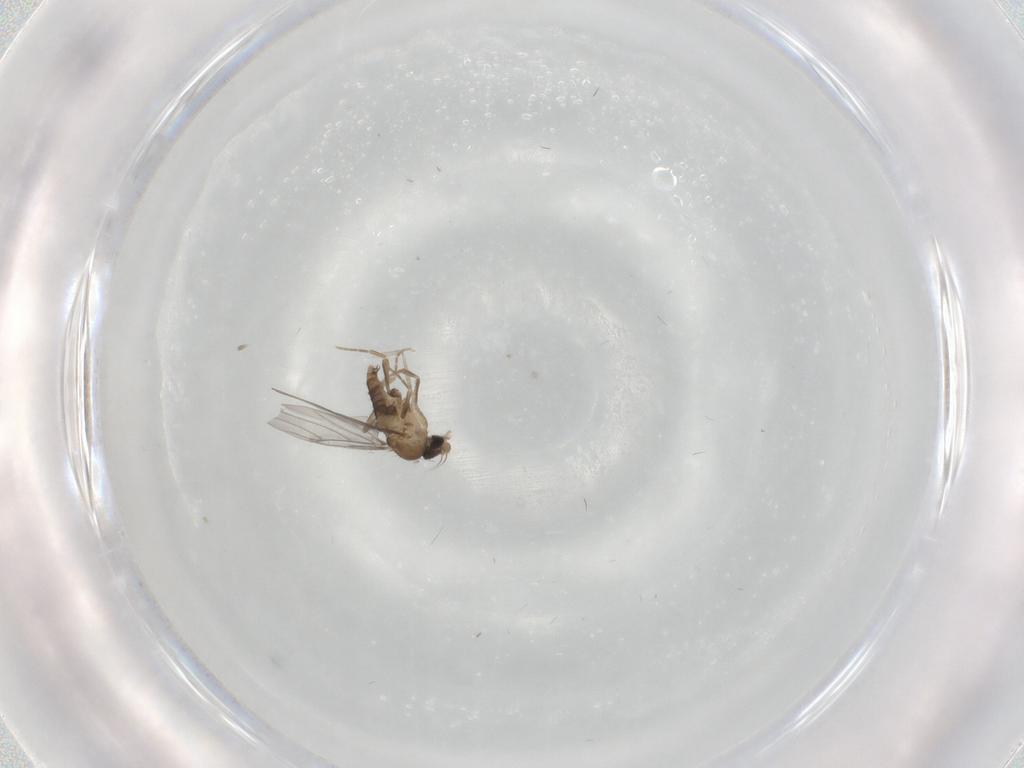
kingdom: Animalia
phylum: Arthropoda
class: Insecta
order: Diptera
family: Psychodidae
